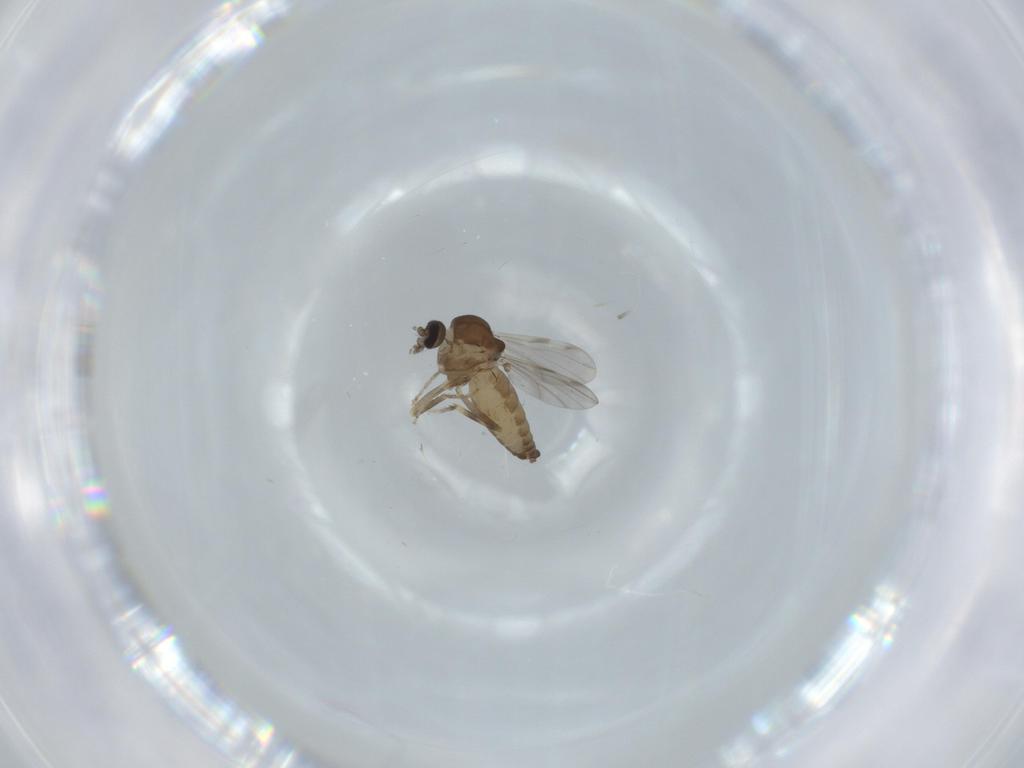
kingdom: Animalia
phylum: Arthropoda
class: Insecta
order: Diptera
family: Ceratopogonidae
